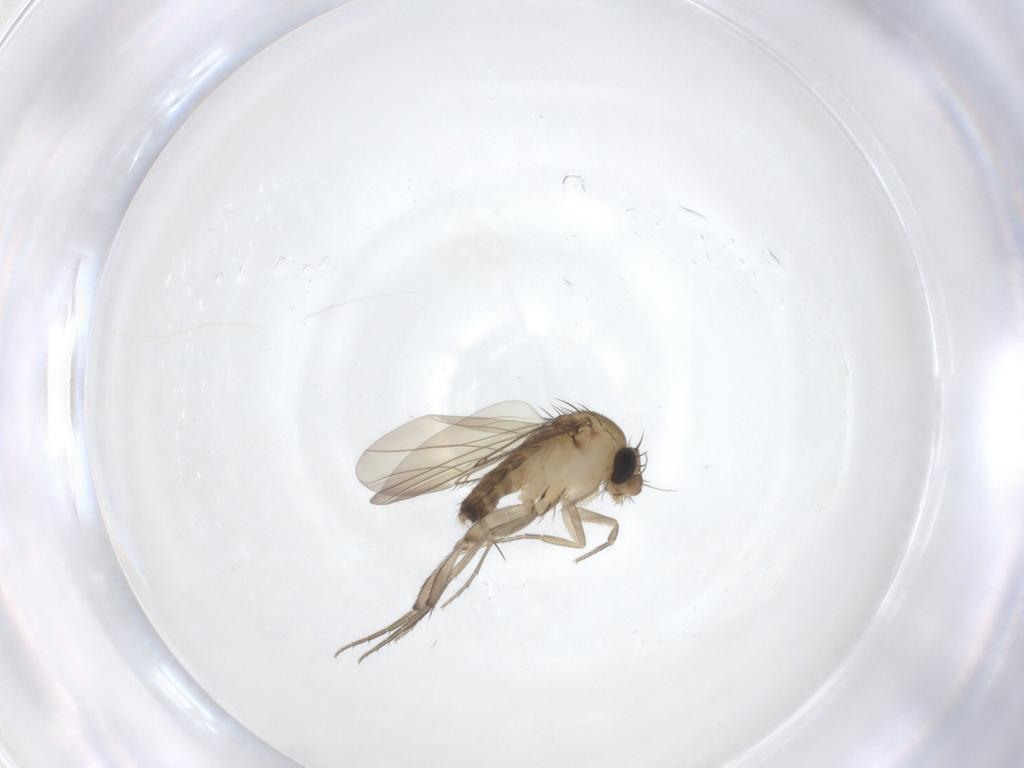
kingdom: Animalia
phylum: Arthropoda
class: Insecta
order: Diptera
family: Phoridae
